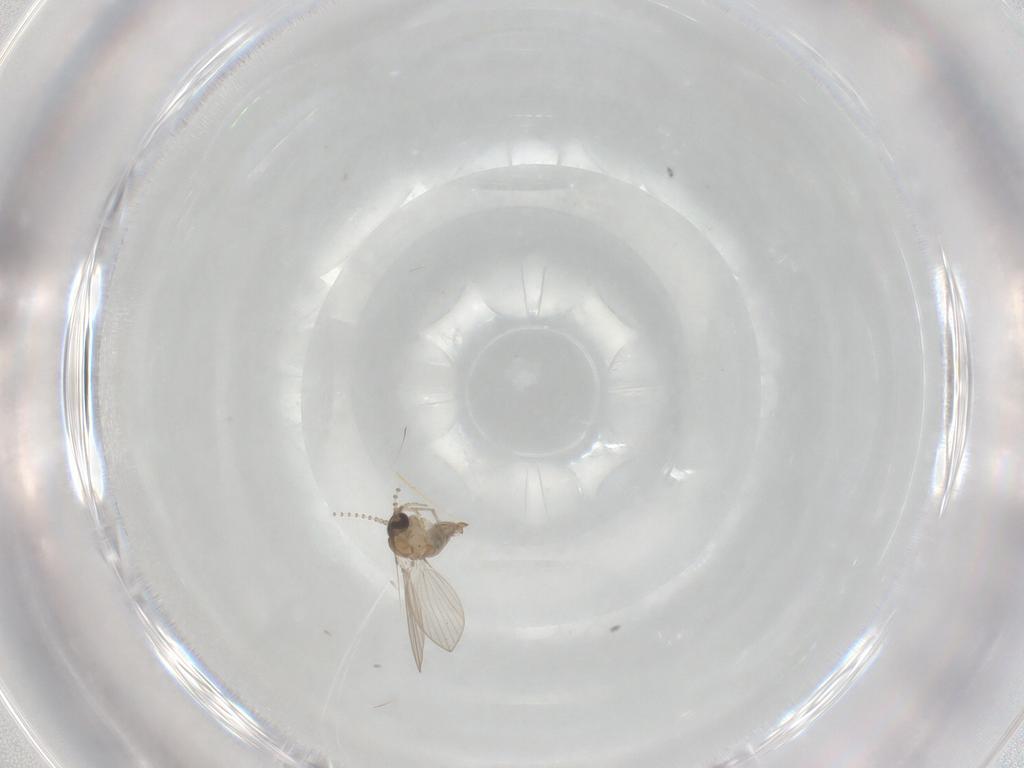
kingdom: Animalia
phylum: Arthropoda
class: Insecta
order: Diptera
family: Psychodidae
